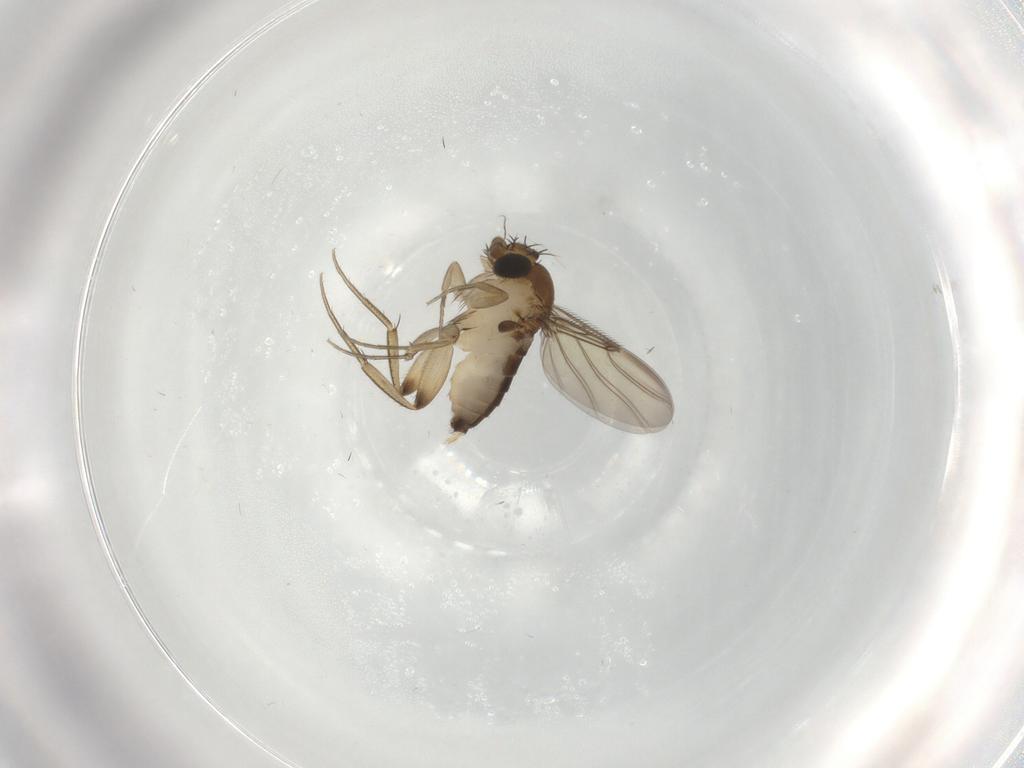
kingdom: Animalia
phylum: Arthropoda
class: Insecta
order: Diptera
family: Phoridae
